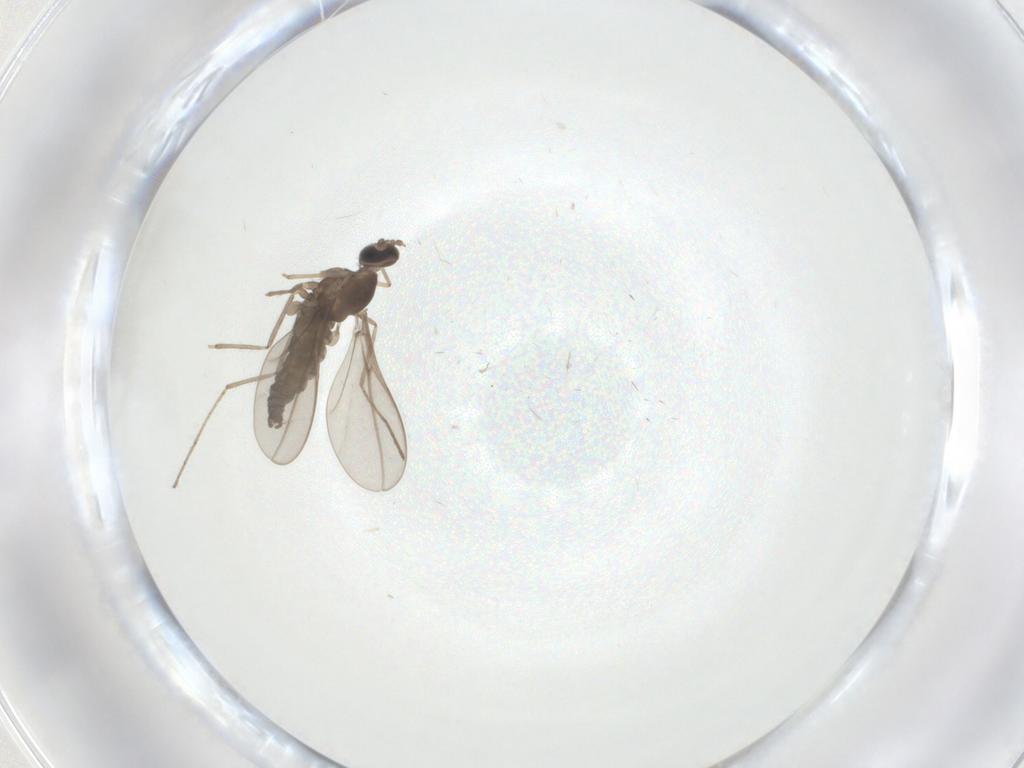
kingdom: Animalia
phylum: Arthropoda
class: Insecta
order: Diptera
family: Cecidomyiidae
